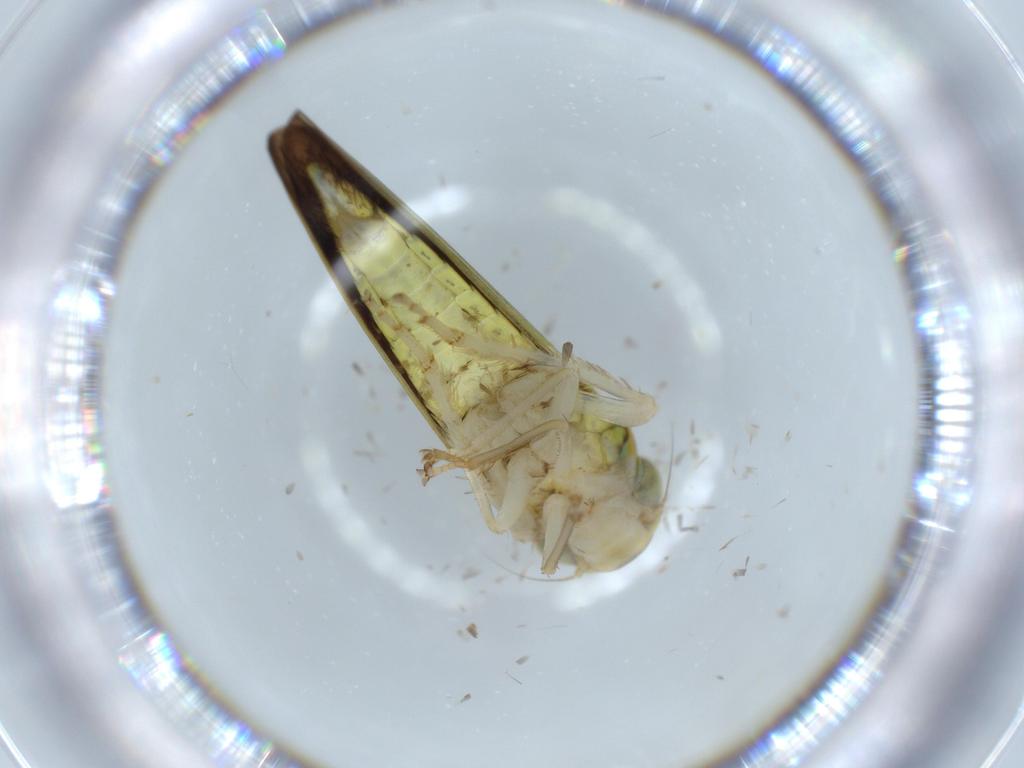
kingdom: Animalia
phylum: Arthropoda
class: Insecta
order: Hemiptera
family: Cicadellidae
